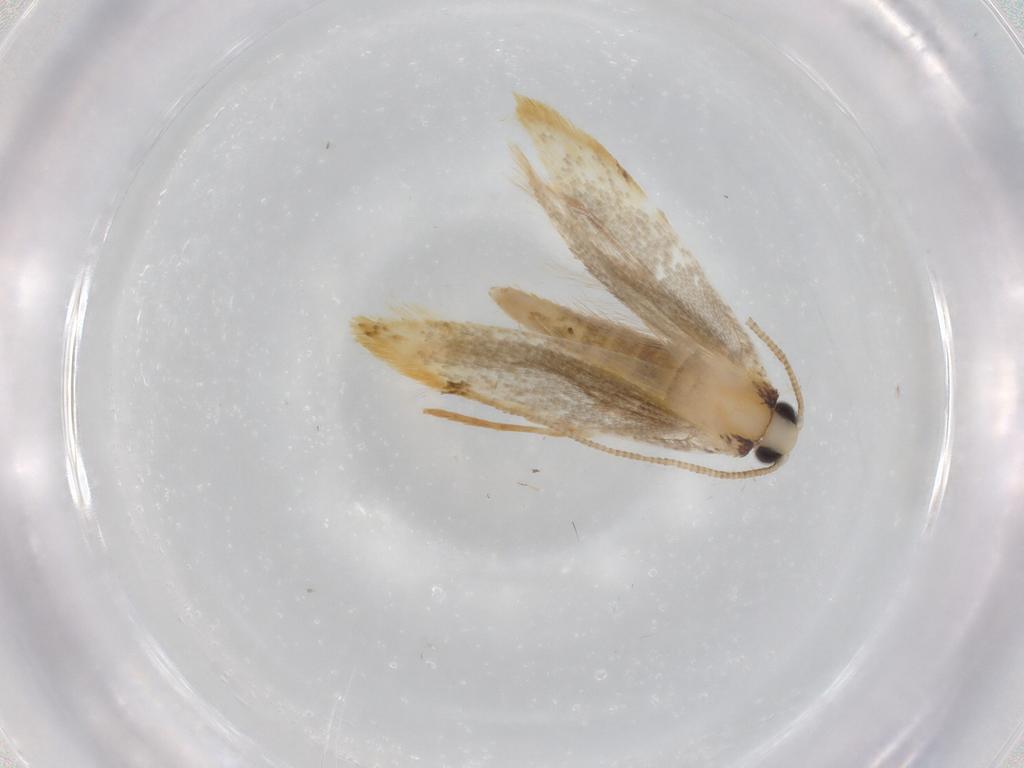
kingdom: Animalia
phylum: Arthropoda
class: Insecta
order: Lepidoptera
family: Tineidae
